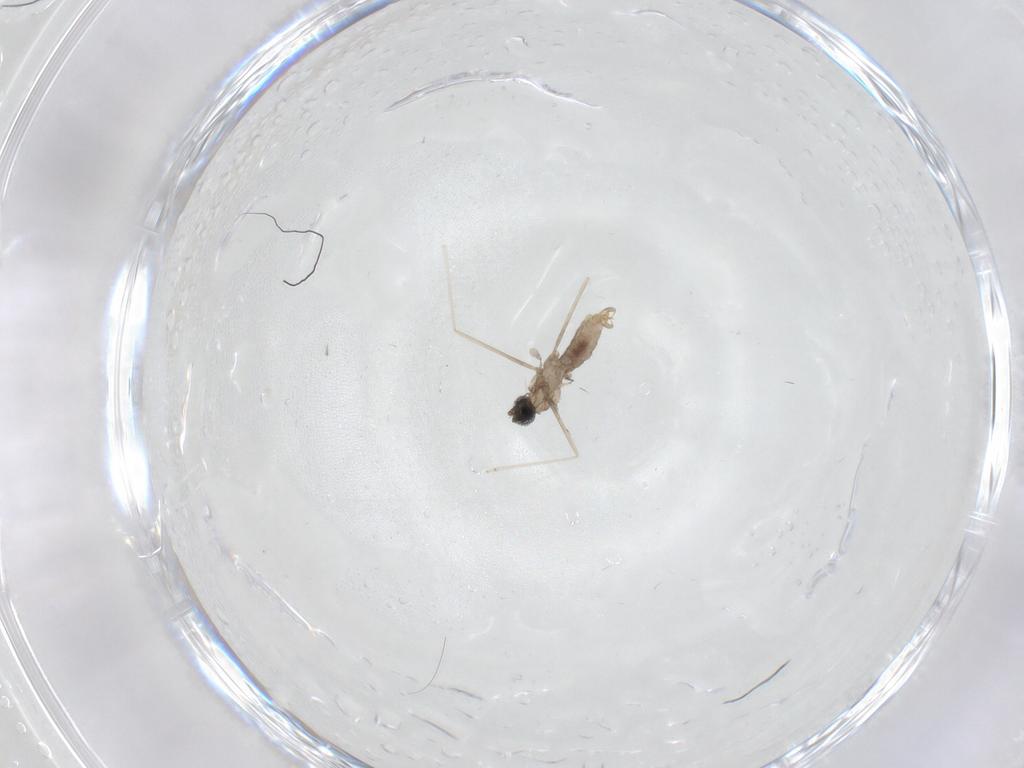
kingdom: Animalia
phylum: Arthropoda
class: Insecta
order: Diptera
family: Cecidomyiidae
